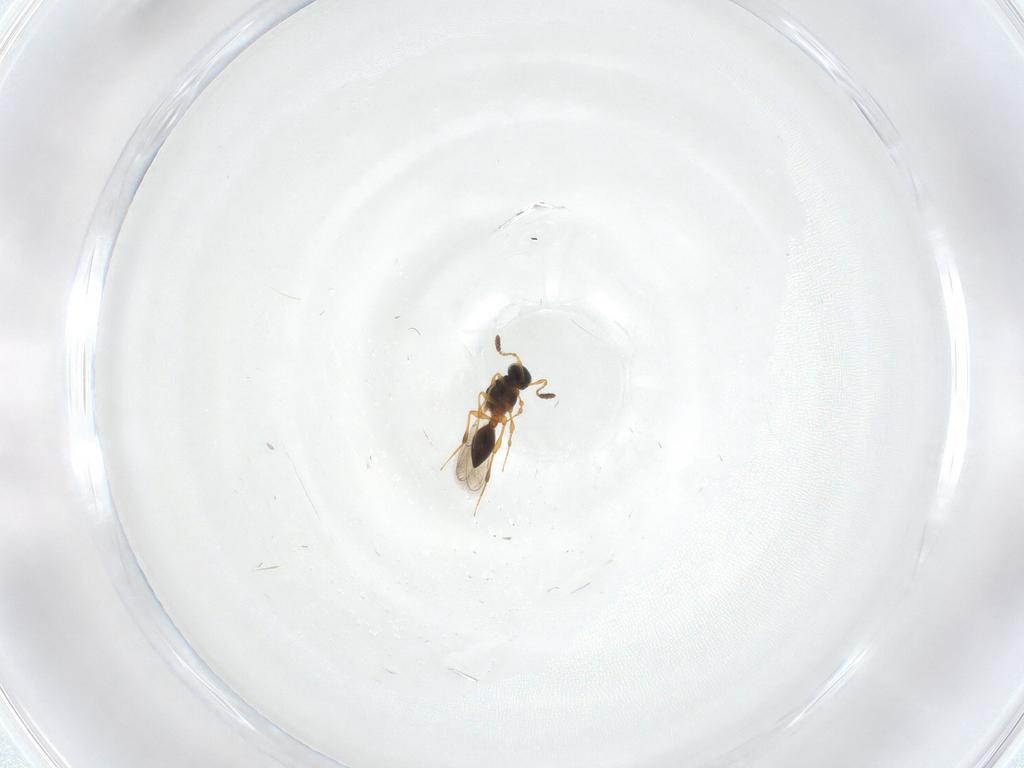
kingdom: Animalia
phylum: Arthropoda
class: Insecta
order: Hymenoptera
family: Platygastridae
